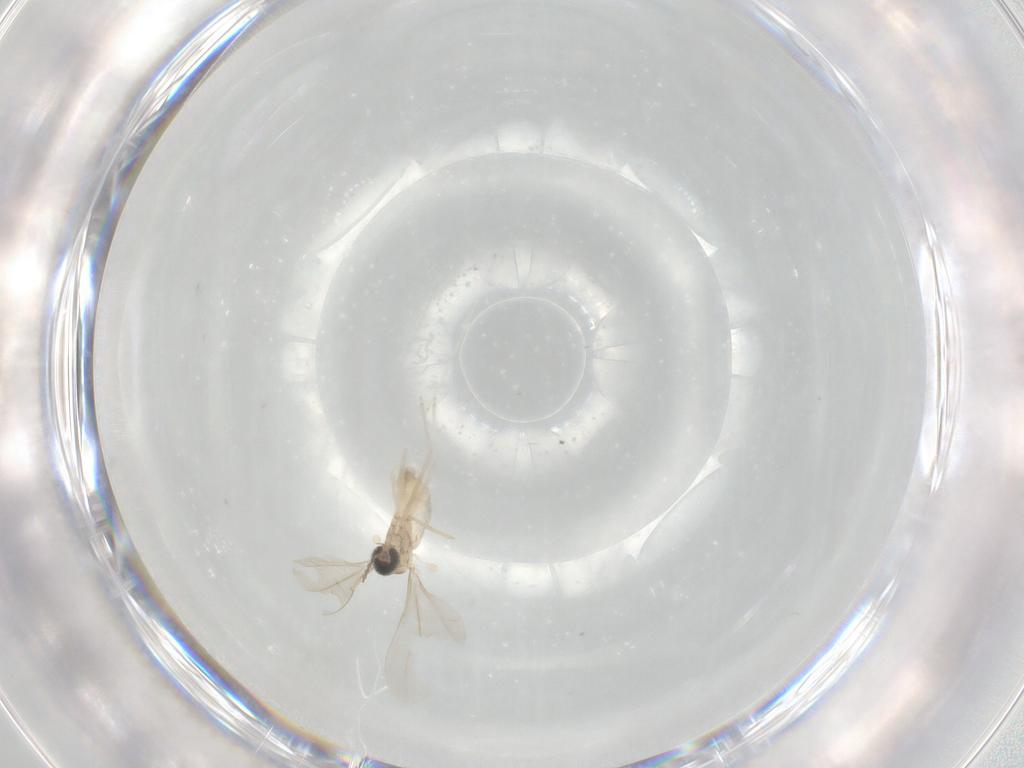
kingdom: Animalia
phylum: Arthropoda
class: Insecta
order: Diptera
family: Cecidomyiidae
